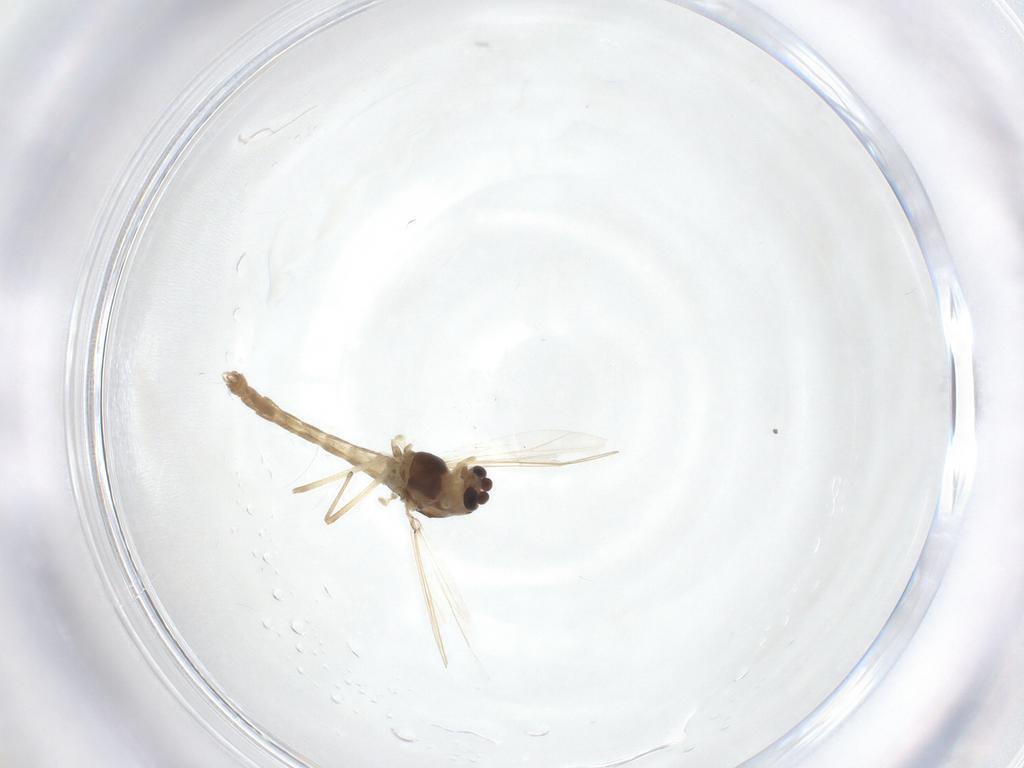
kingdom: Animalia
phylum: Arthropoda
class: Insecta
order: Diptera
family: Chironomidae
